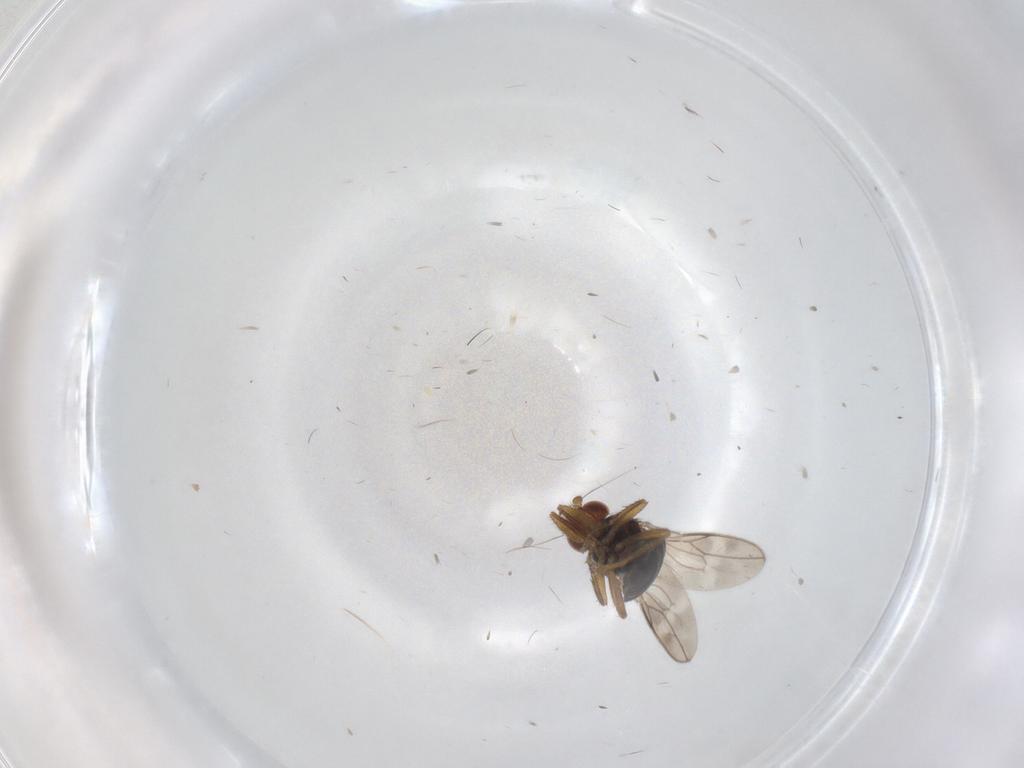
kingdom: Animalia
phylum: Arthropoda
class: Insecta
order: Diptera
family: Sphaeroceridae
